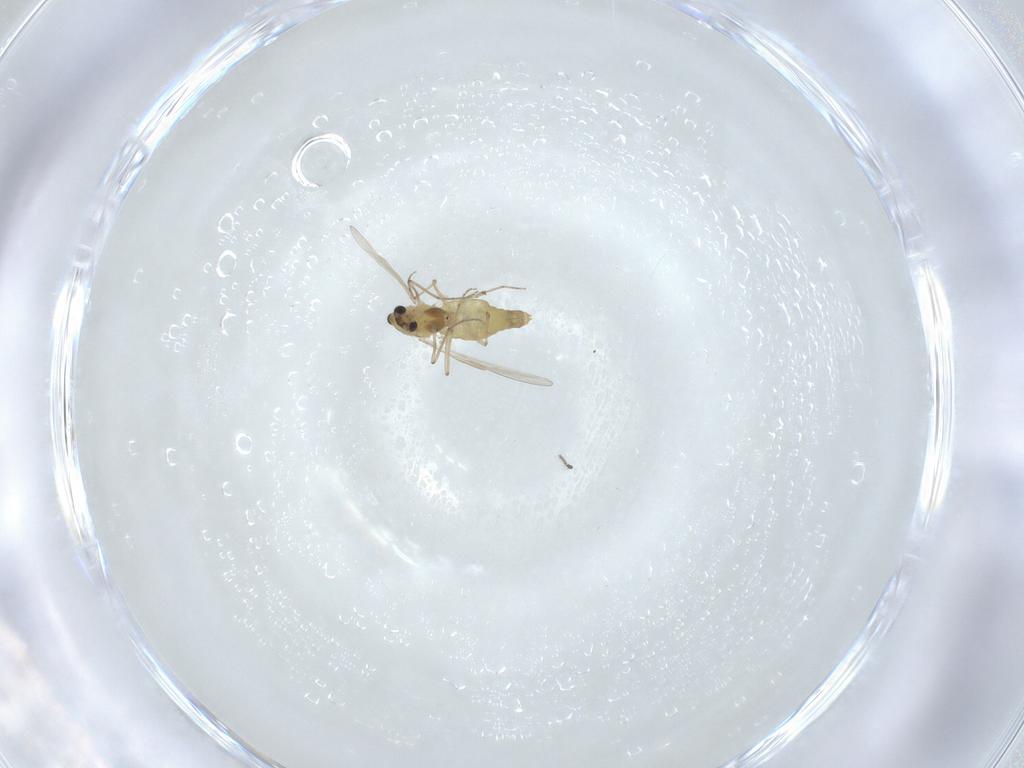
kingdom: Animalia
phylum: Arthropoda
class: Insecta
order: Diptera
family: Chironomidae
